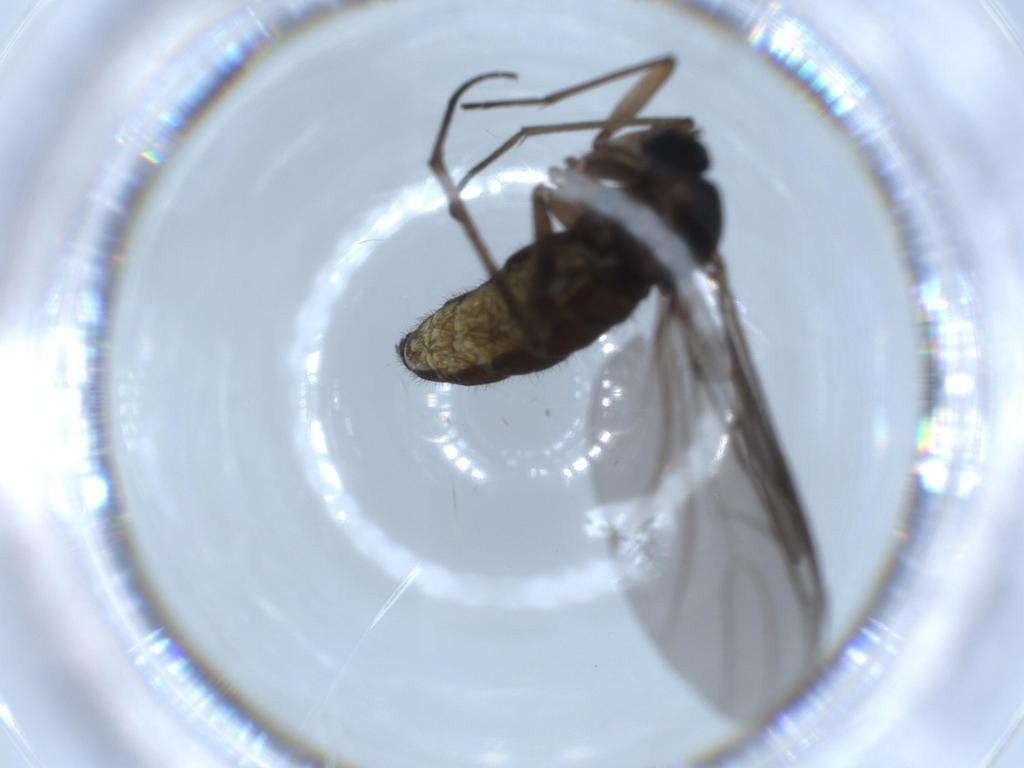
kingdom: Animalia
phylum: Arthropoda
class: Insecta
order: Diptera
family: Sciaridae
